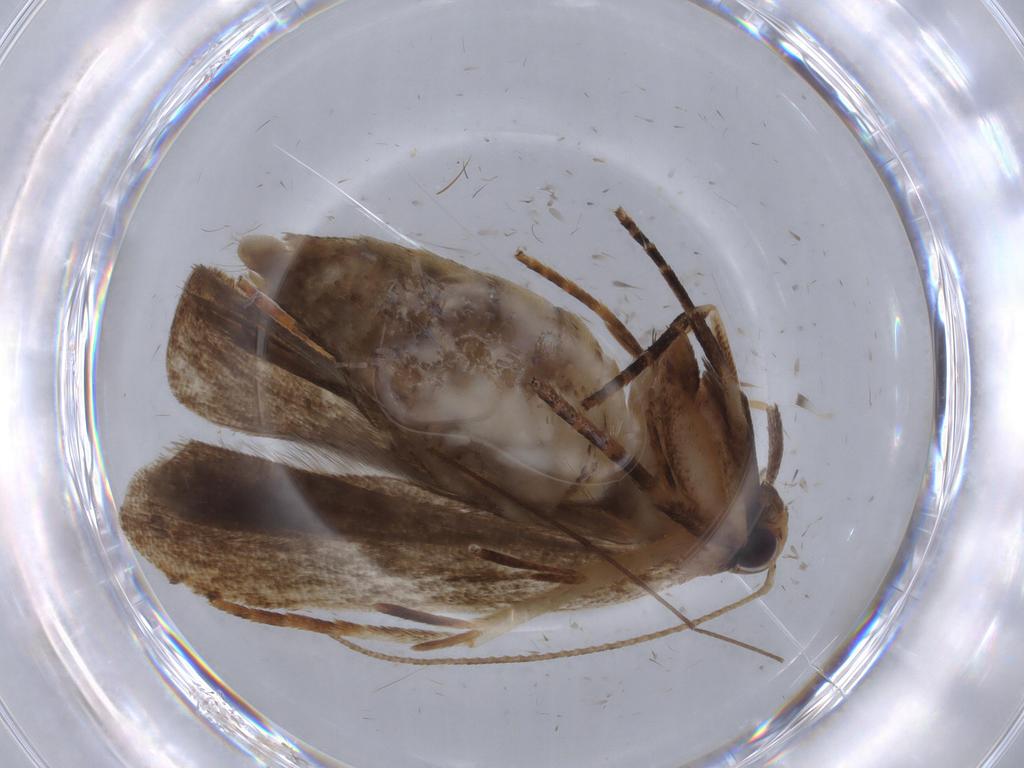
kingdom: Animalia
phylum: Arthropoda
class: Insecta
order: Lepidoptera
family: Gelechiidae
